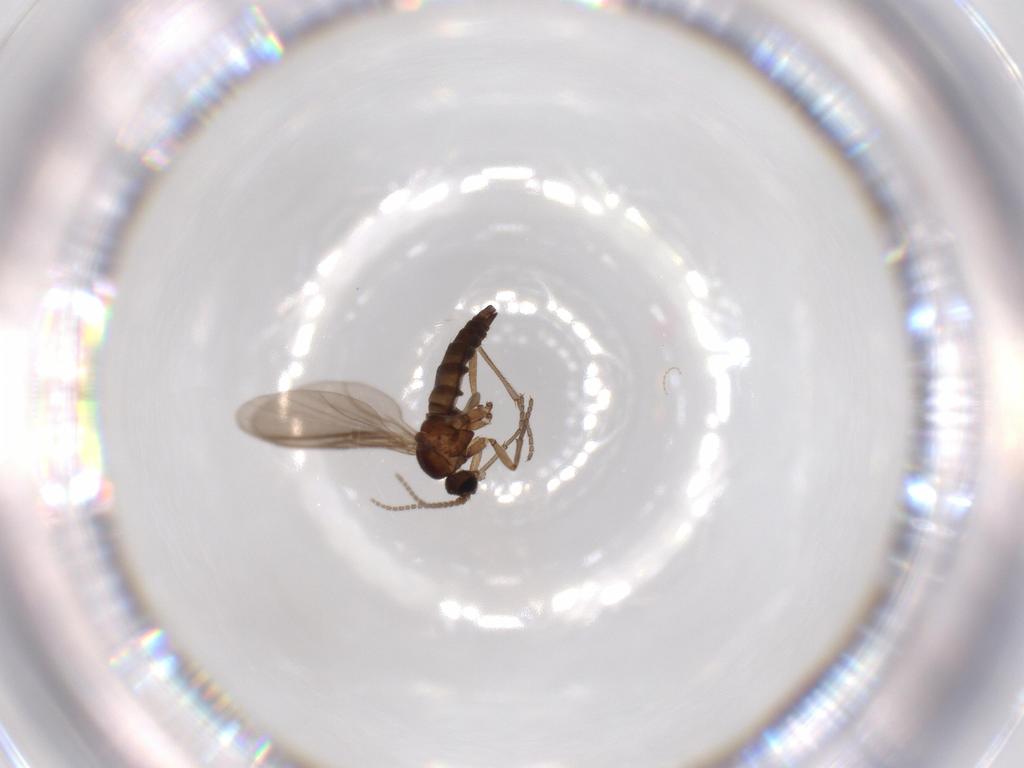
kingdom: Animalia
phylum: Arthropoda
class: Insecta
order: Diptera
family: Sciaridae
